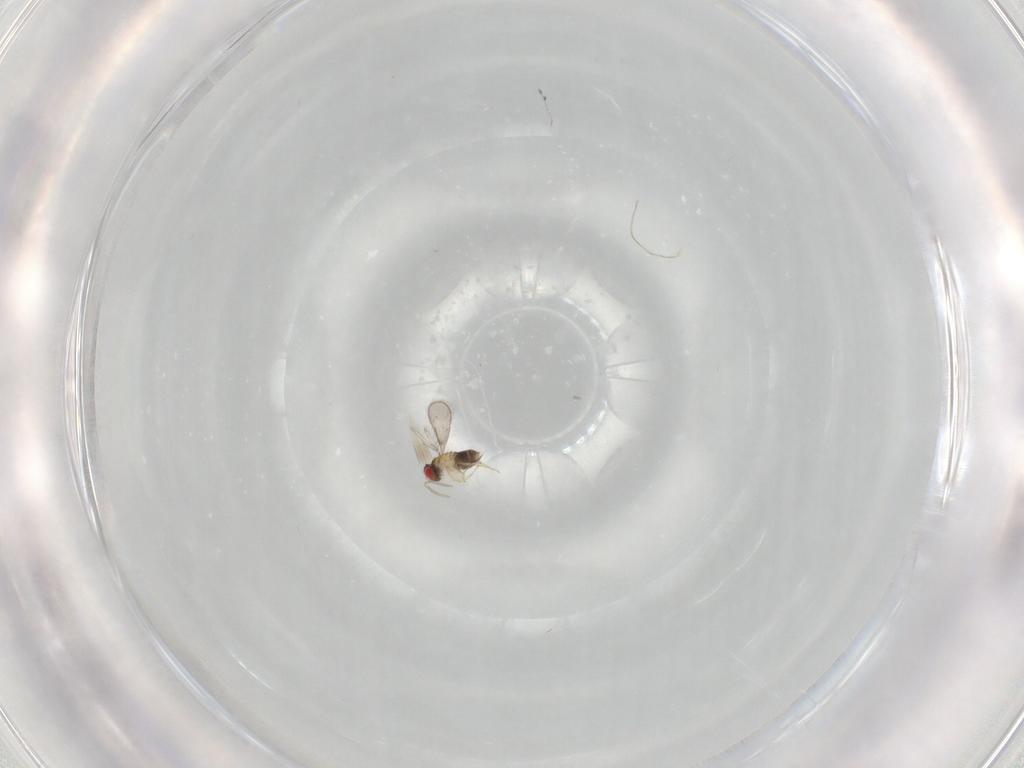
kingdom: Animalia
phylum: Arthropoda
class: Insecta
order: Hymenoptera
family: Aphelinidae
